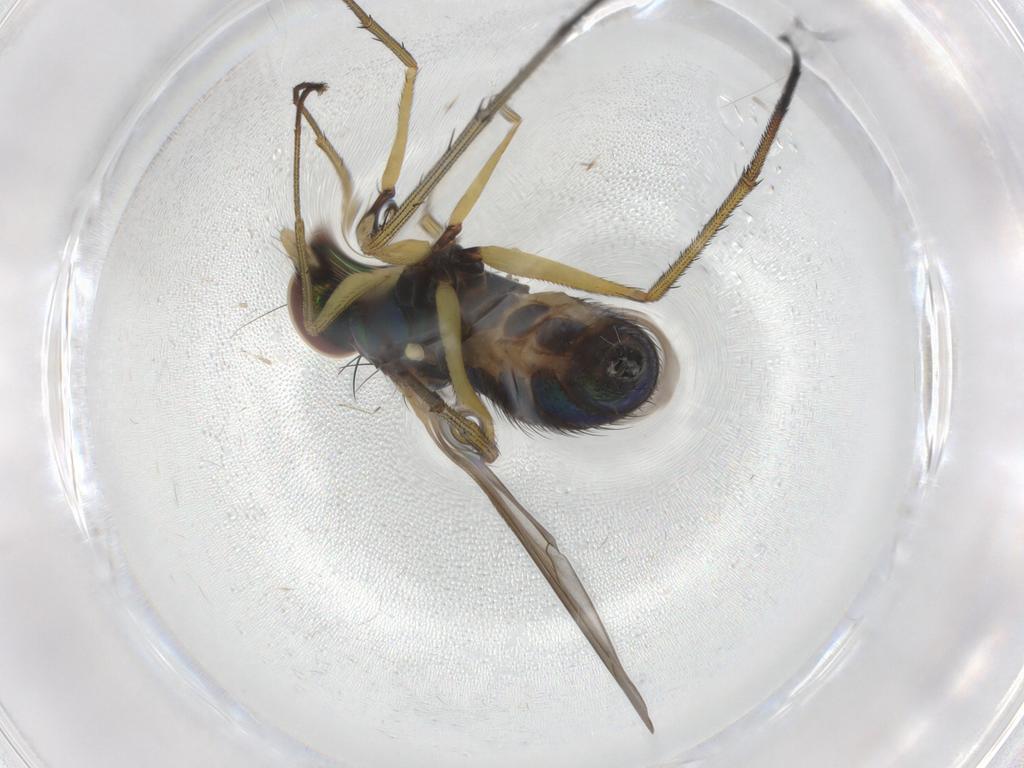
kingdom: Animalia
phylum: Arthropoda
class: Insecta
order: Diptera
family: Dolichopodidae
